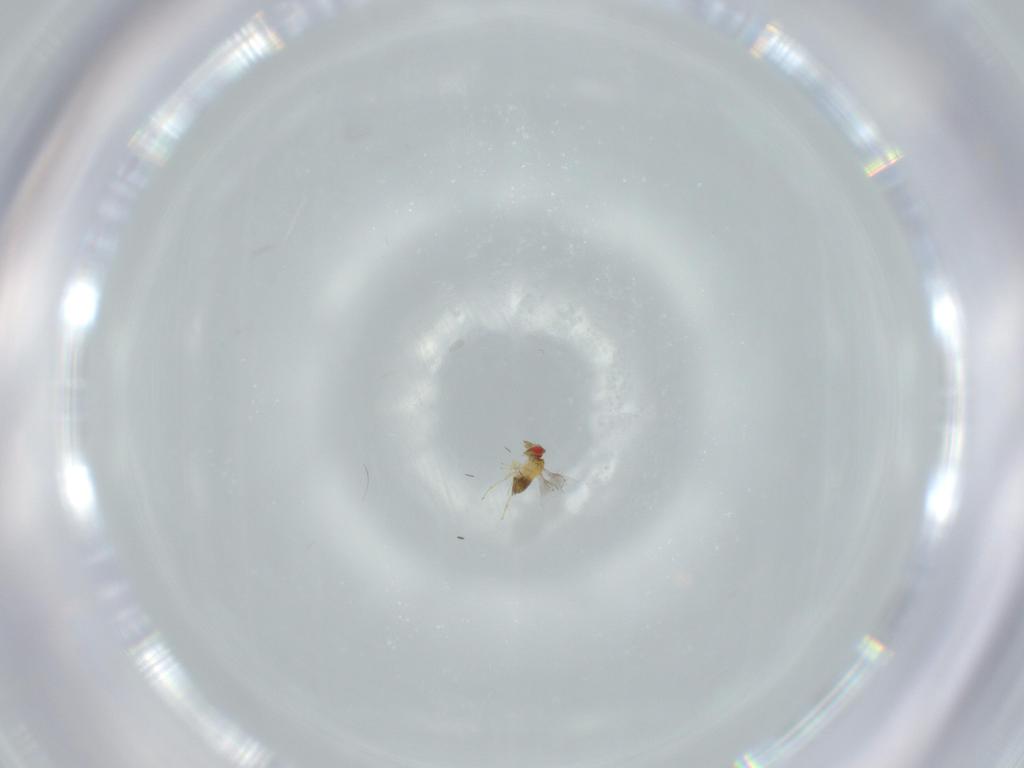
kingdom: Animalia
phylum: Arthropoda
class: Insecta
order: Hymenoptera
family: Trichogrammatidae
